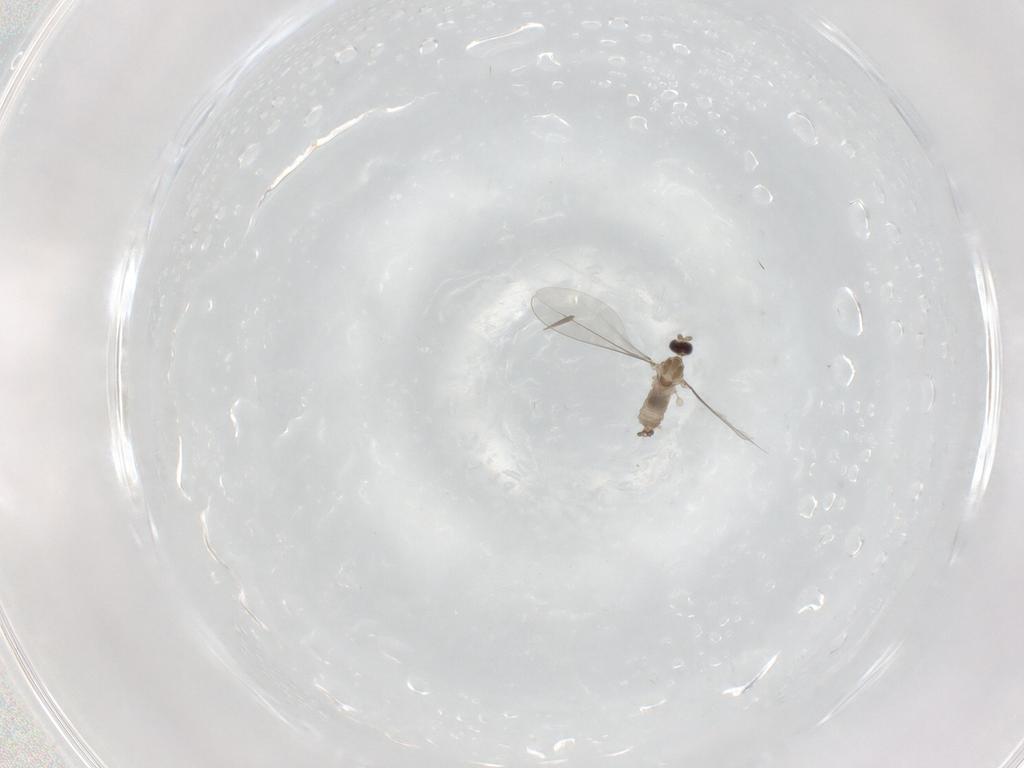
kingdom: Animalia
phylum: Arthropoda
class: Insecta
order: Diptera
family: Cecidomyiidae
